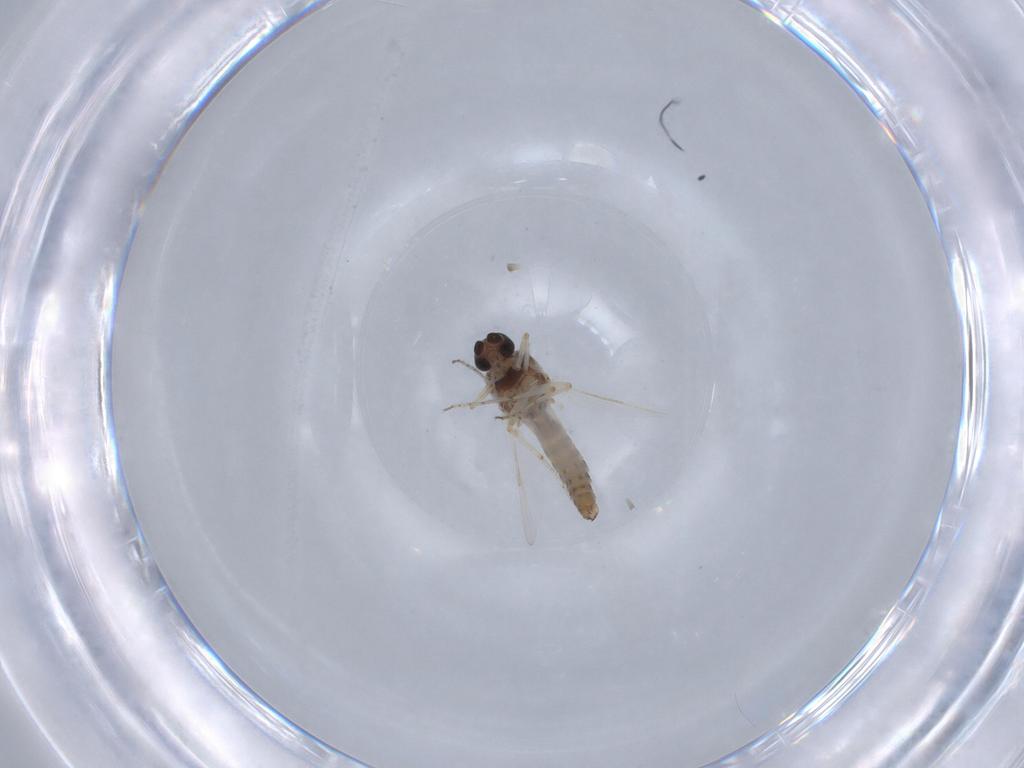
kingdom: Animalia
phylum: Arthropoda
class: Insecta
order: Diptera
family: Ceratopogonidae
